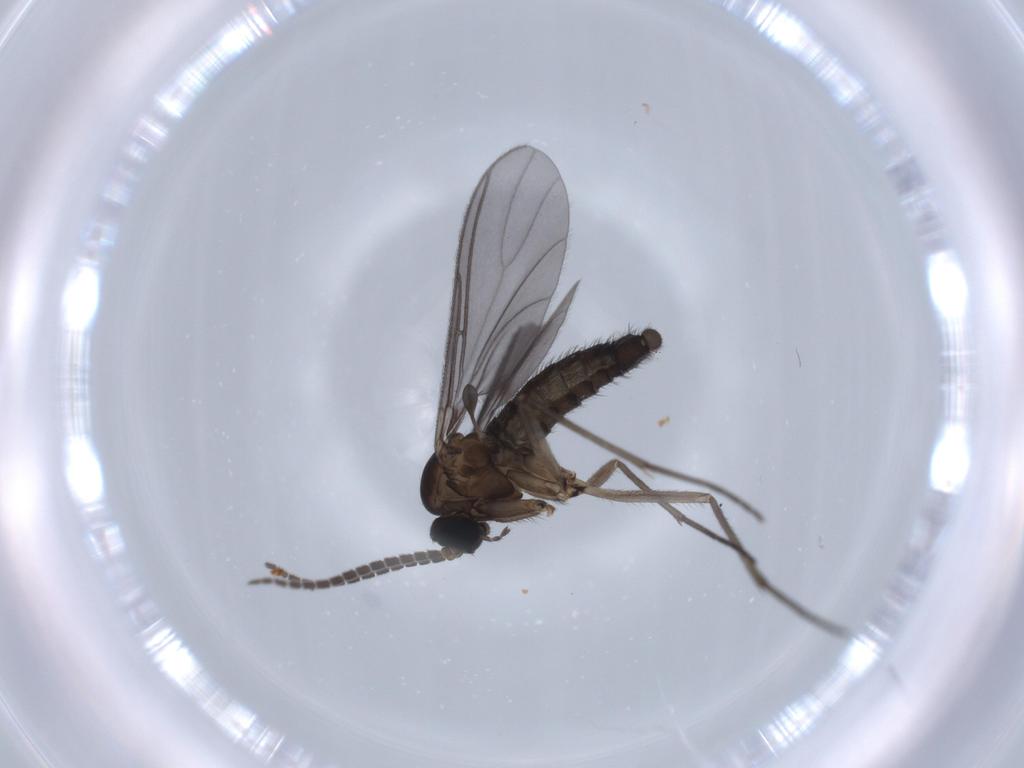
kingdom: Animalia
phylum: Arthropoda
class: Insecta
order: Diptera
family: Sciaridae
